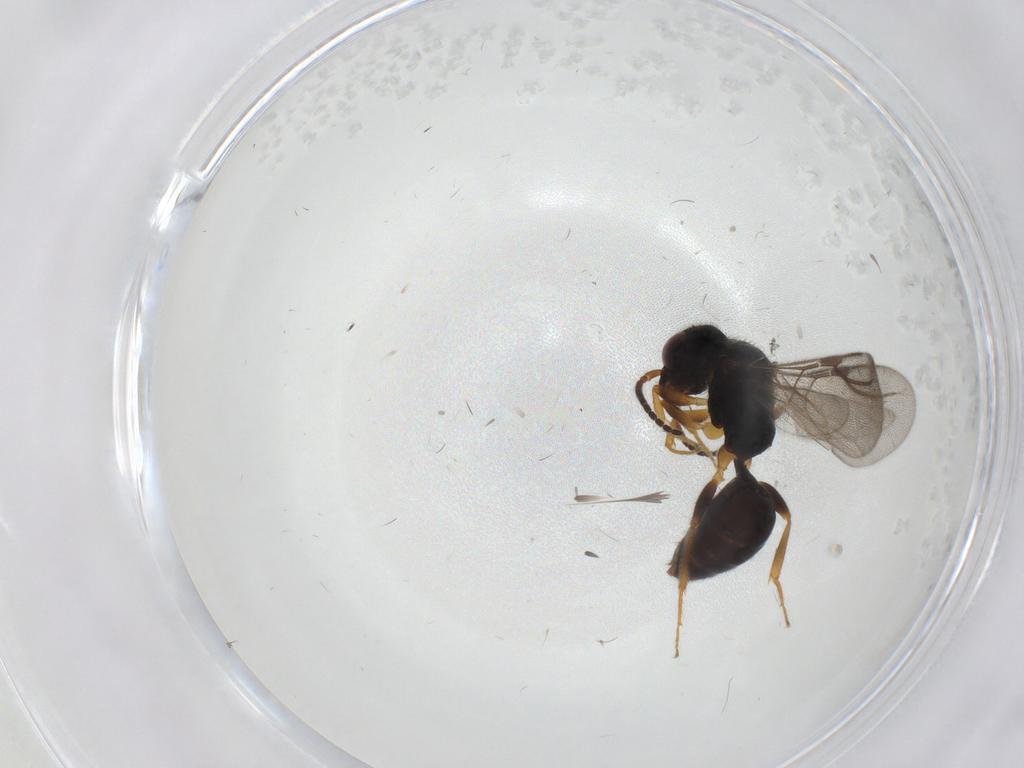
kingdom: Animalia
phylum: Arthropoda
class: Insecta
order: Hymenoptera
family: Bethylidae
